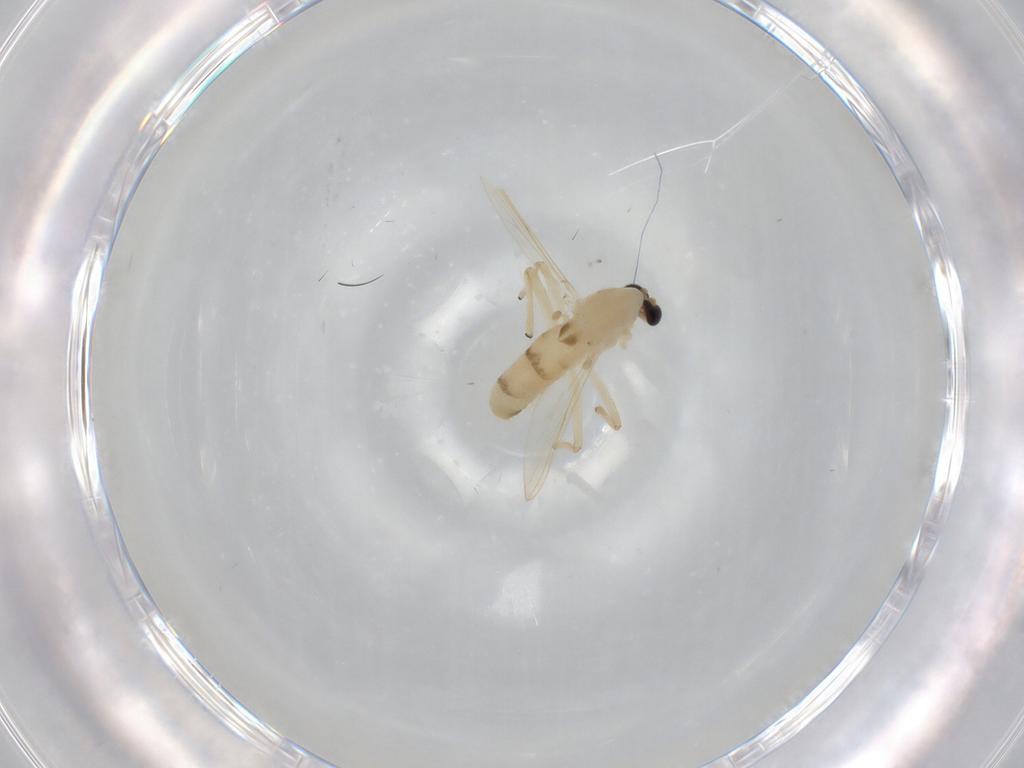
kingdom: Animalia
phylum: Arthropoda
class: Insecta
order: Diptera
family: Chironomidae
